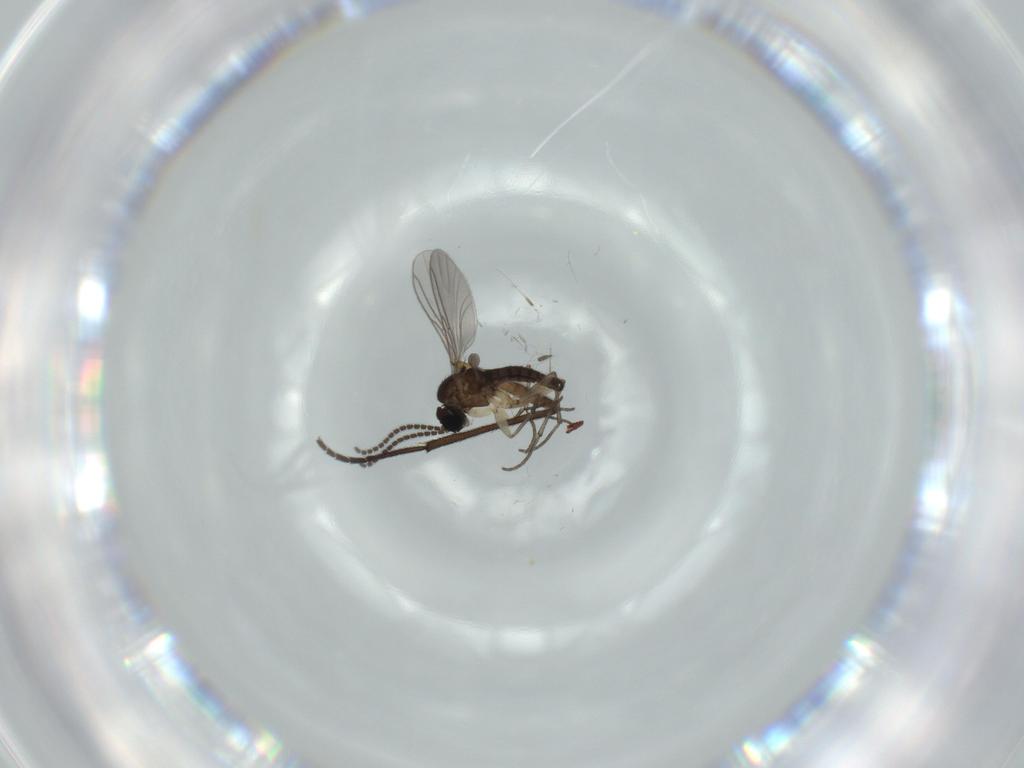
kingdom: Animalia
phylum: Arthropoda
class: Insecta
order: Diptera
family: Sciaridae
